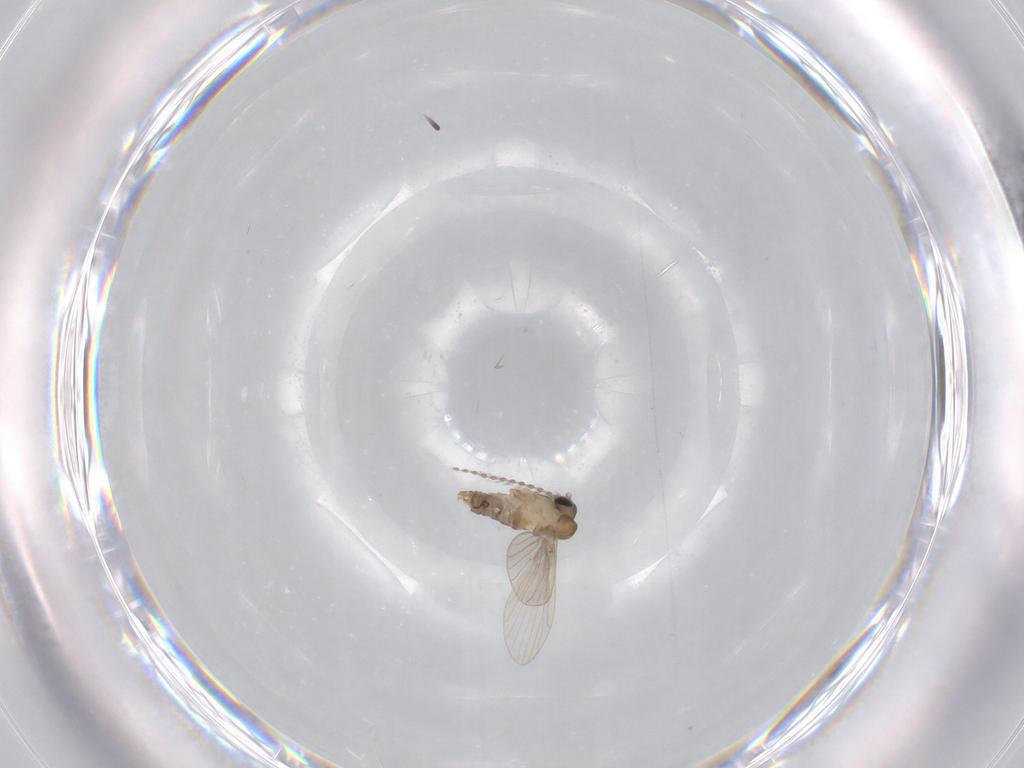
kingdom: Animalia
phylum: Arthropoda
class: Insecta
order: Diptera
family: Psychodidae
